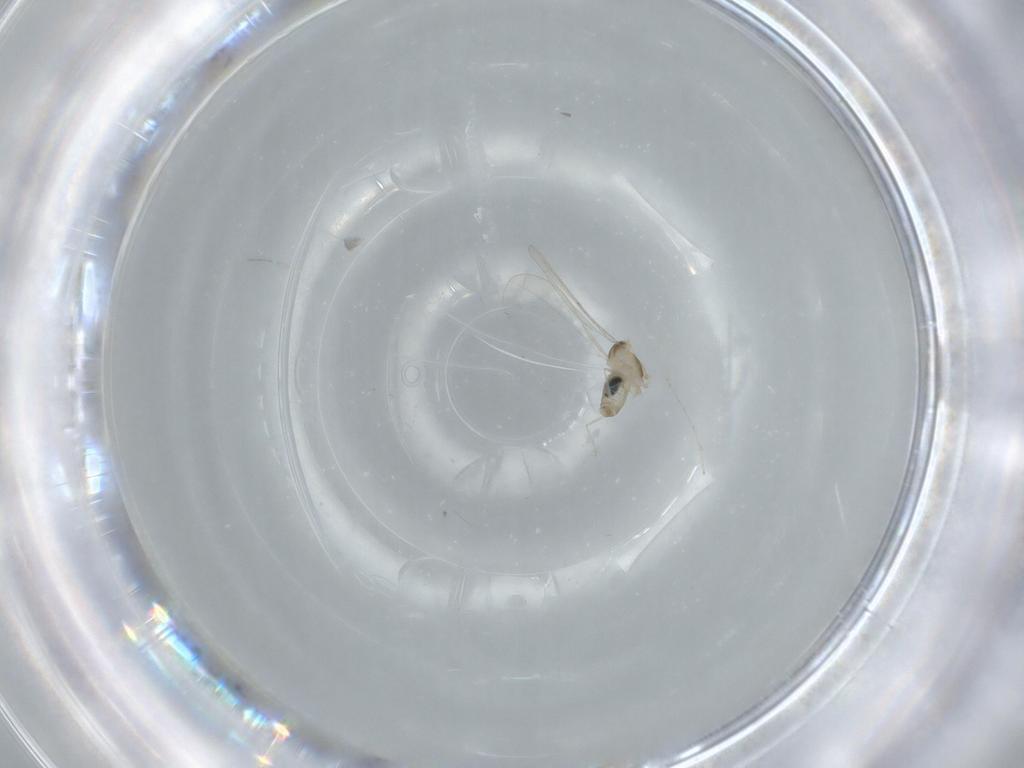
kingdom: Animalia
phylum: Arthropoda
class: Insecta
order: Diptera
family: Cecidomyiidae
